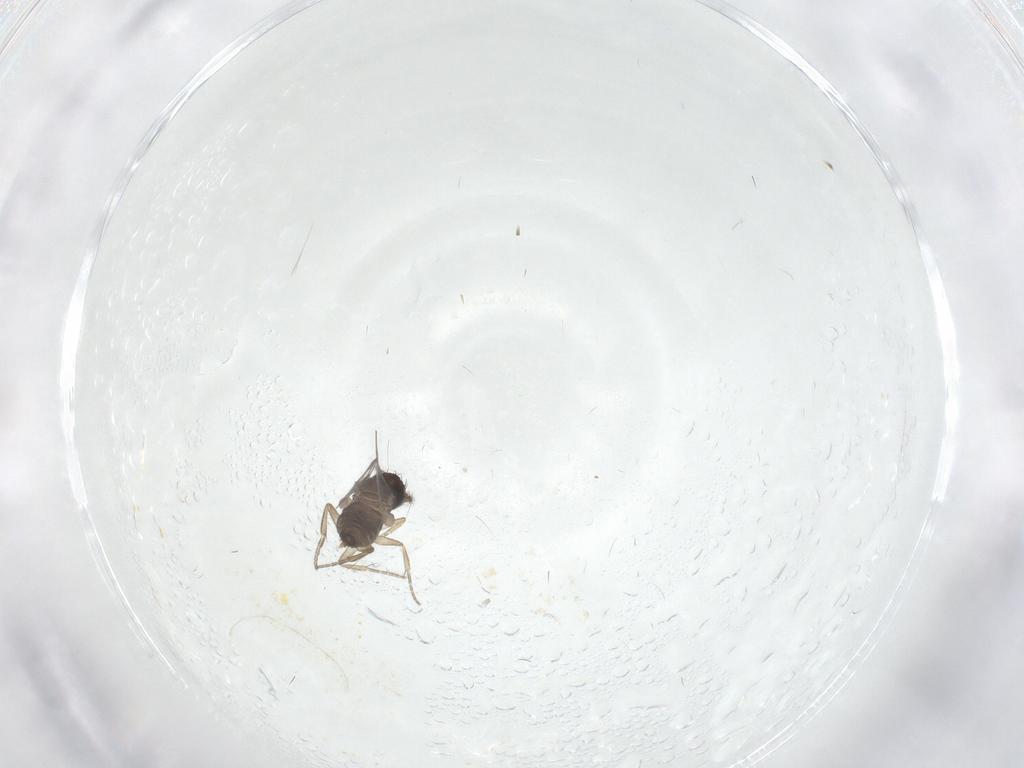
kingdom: Animalia
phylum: Arthropoda
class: Insecta
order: Diptera
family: Phoridae
